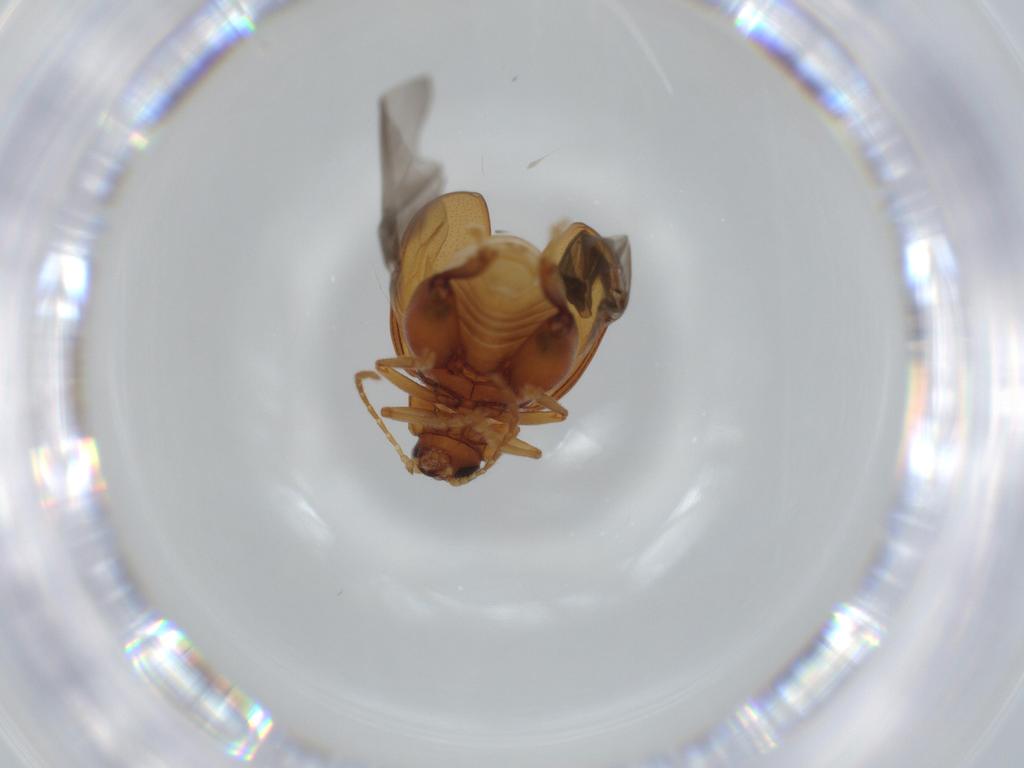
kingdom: Animalia
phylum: Arthropoda
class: Insecta
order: Coleoptera
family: Chrysomelidae
